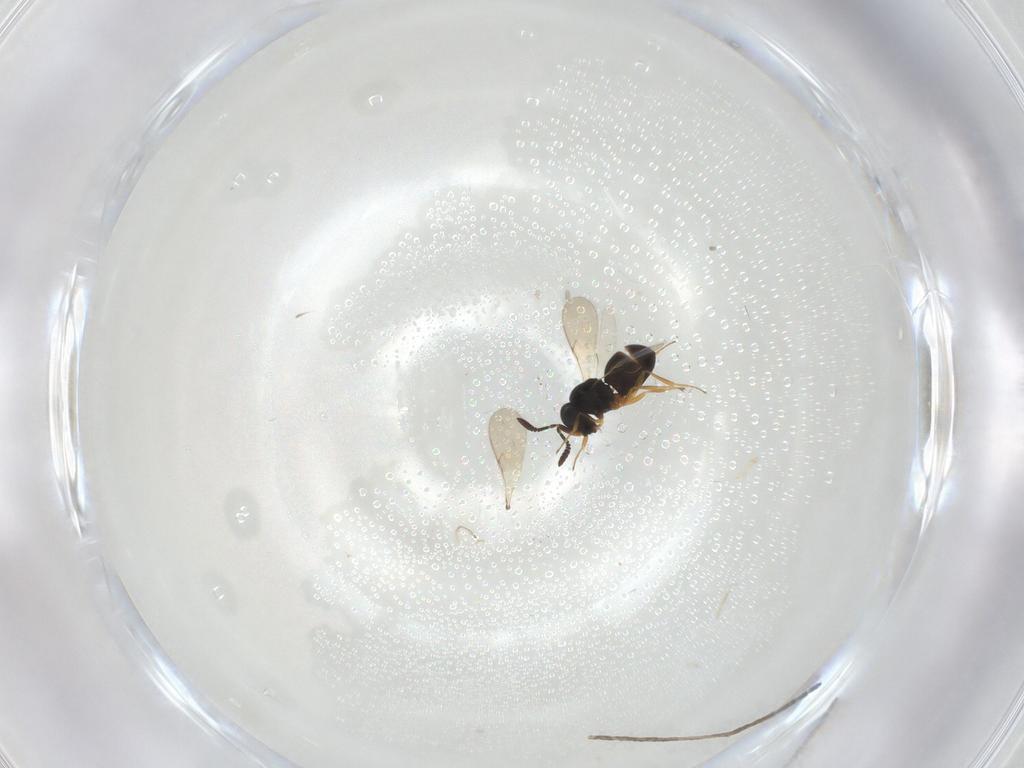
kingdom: Animalia
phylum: Arthropoda
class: Insecta
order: Hymenoptera
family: Scelionidae
